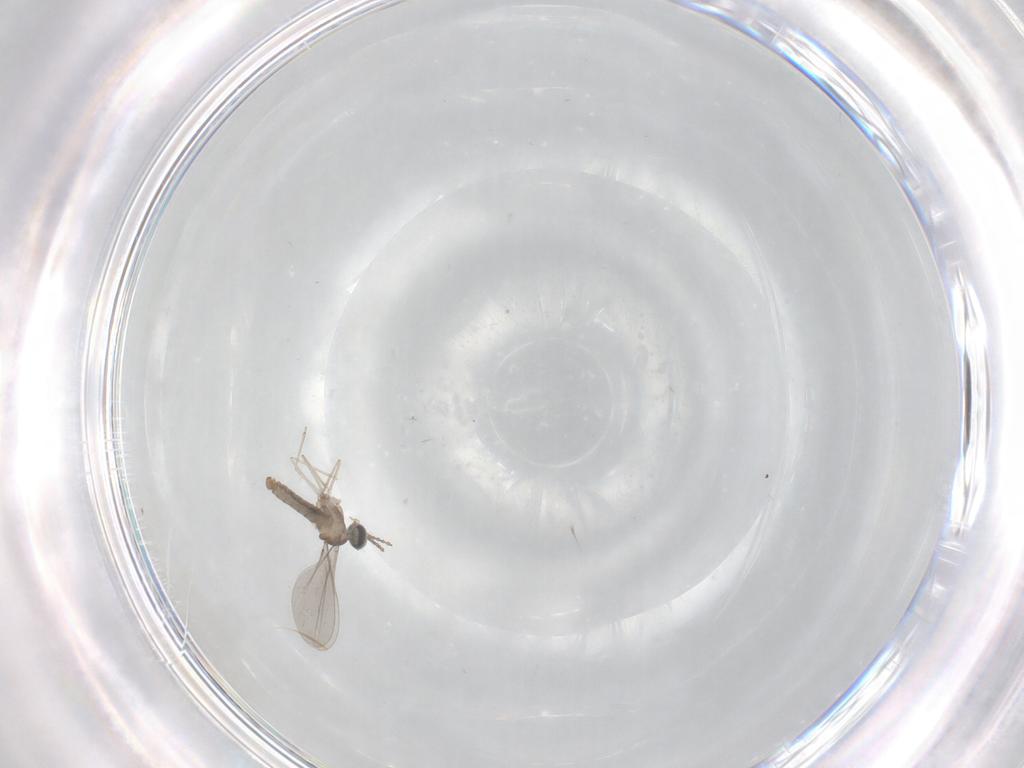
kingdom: Animalia
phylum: Arthropoda
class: Insecta
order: Diptera
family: Cecidomyiidae
